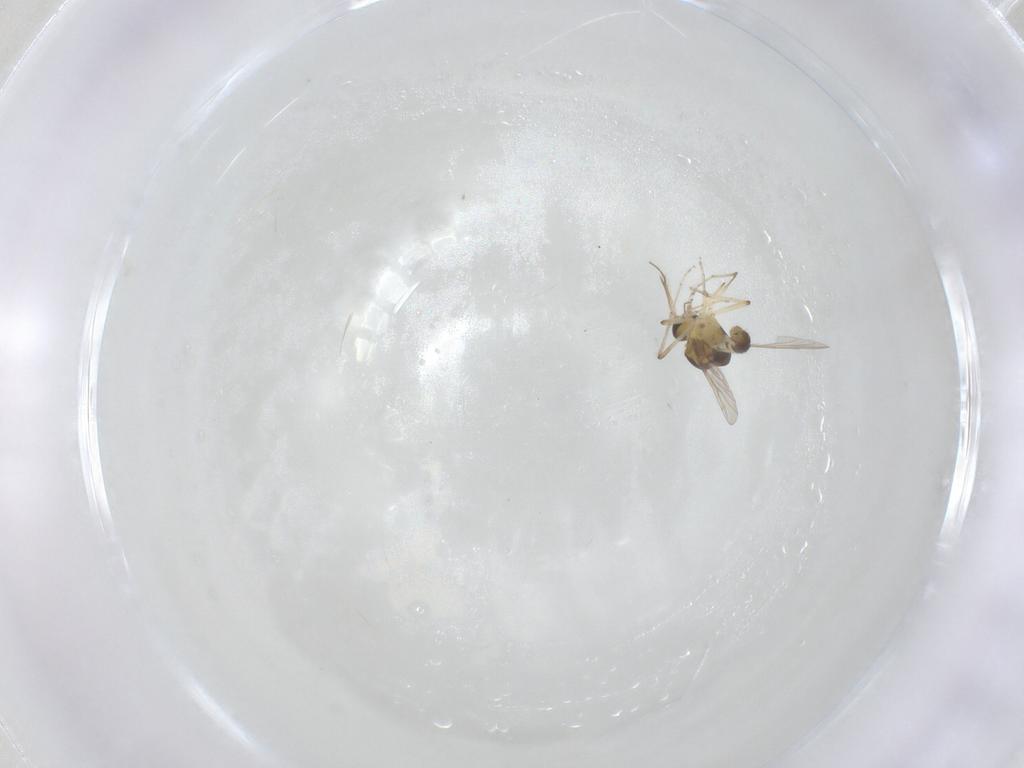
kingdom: Animalia
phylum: Arthropoda
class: Insecta
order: Diptera
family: Ceratopogonidae
